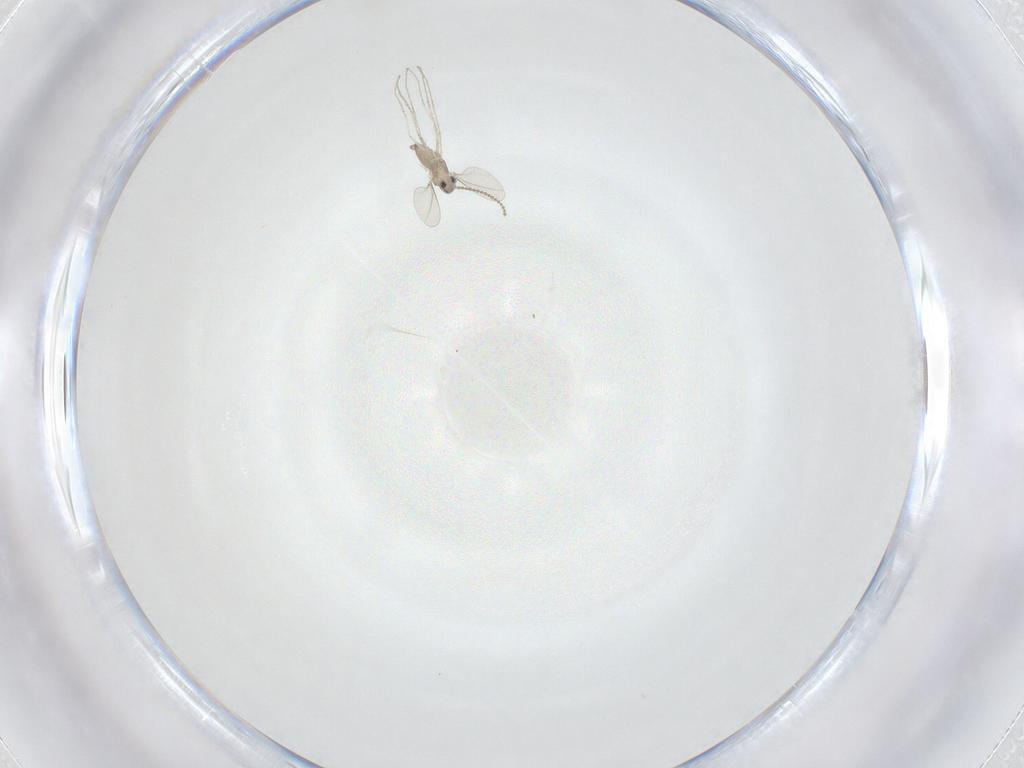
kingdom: Animalia
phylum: Arthropoda
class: Insecta
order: Diptera
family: Cecidomyiidae
